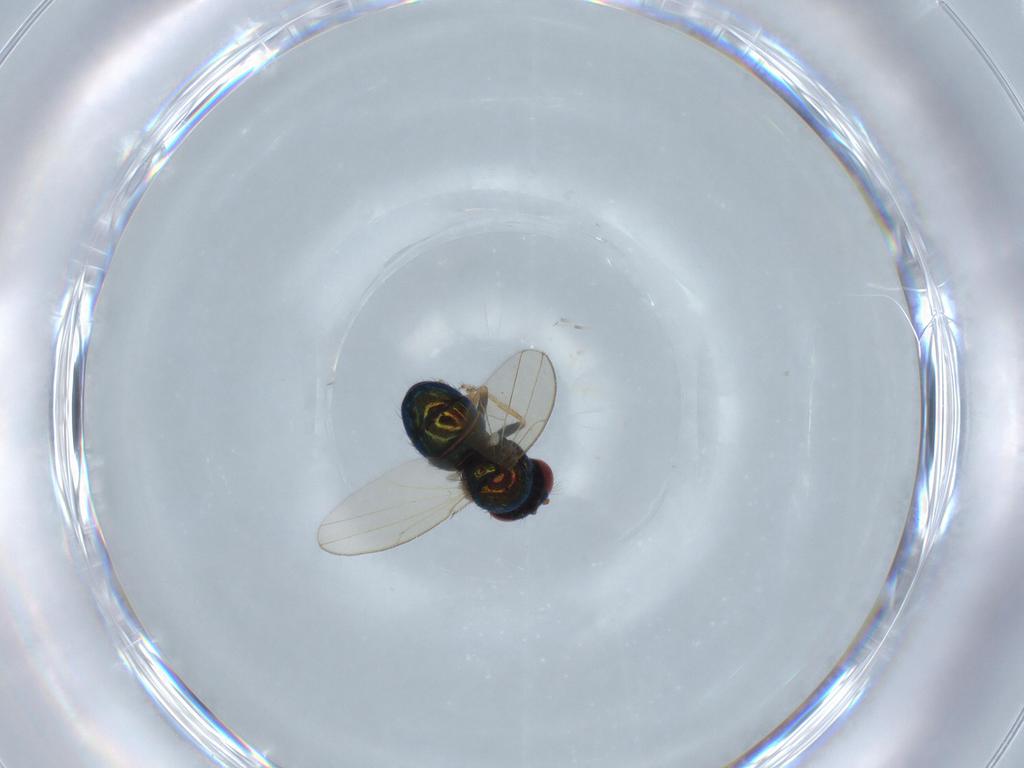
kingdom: Animalia
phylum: Arthropoda
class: Insecta
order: Diptera
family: Ephydridae
